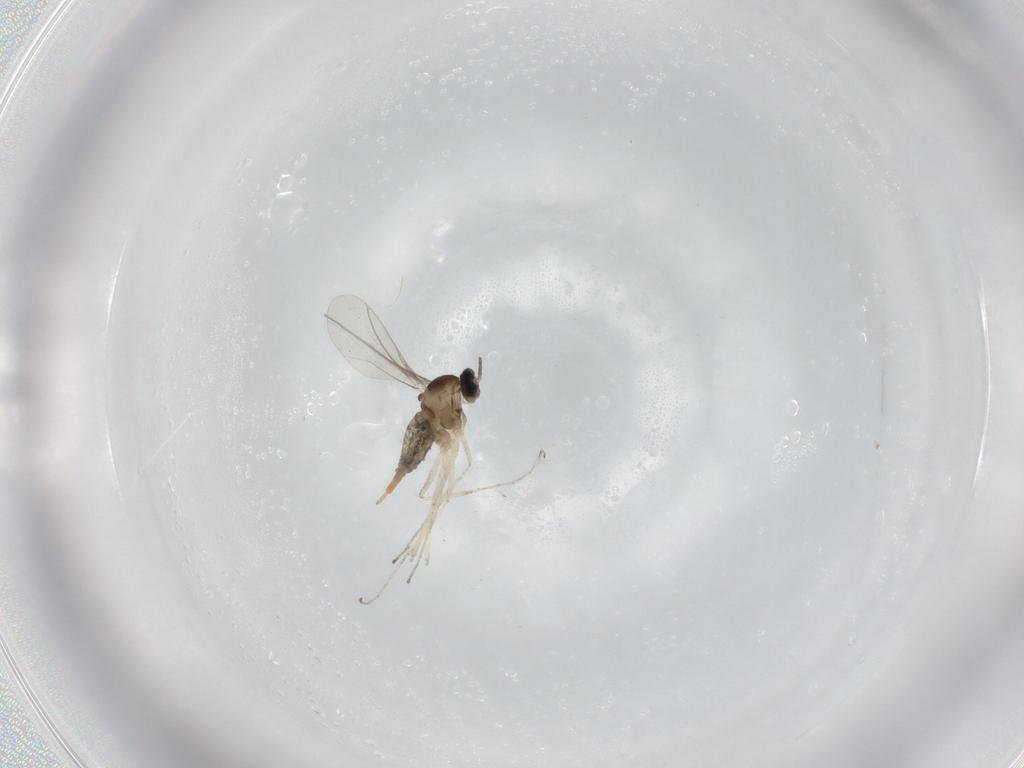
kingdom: Animalia
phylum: Arthropoda
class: Insecta
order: Diptera
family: Cecidomyiidae
